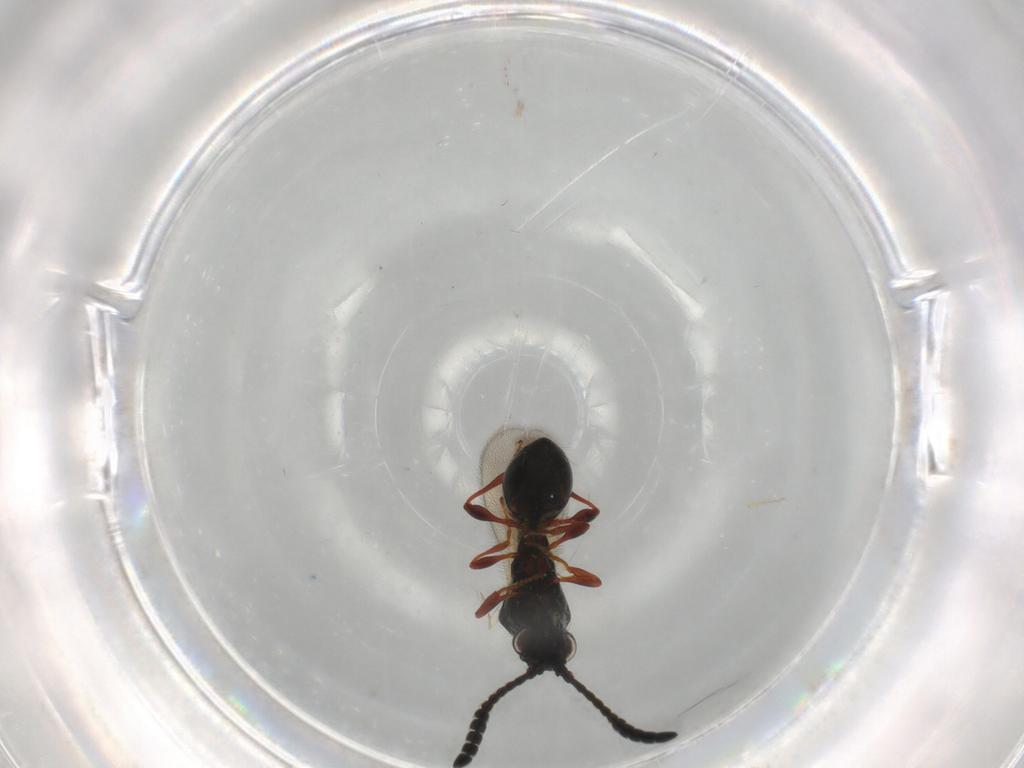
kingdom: Animalia
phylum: Arthropoda
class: Insecta
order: Hymenoptera
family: Diapriidae
